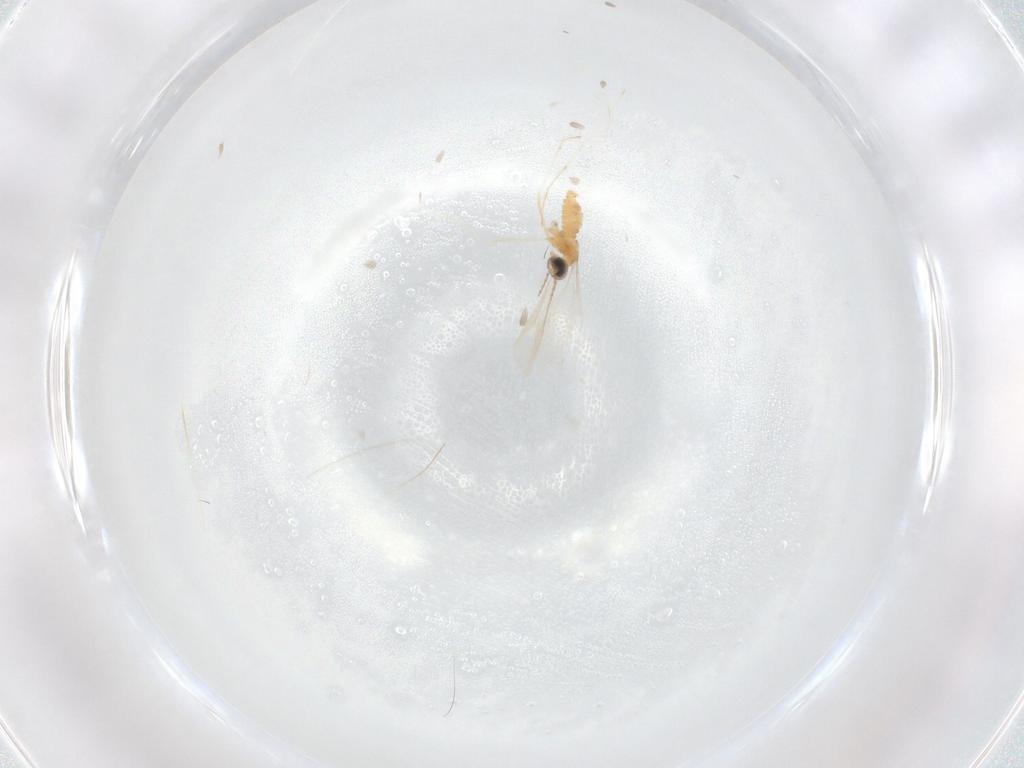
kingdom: Animalia
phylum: Arthropoda
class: Insecta
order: Diptera
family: Cecidomyiidae
